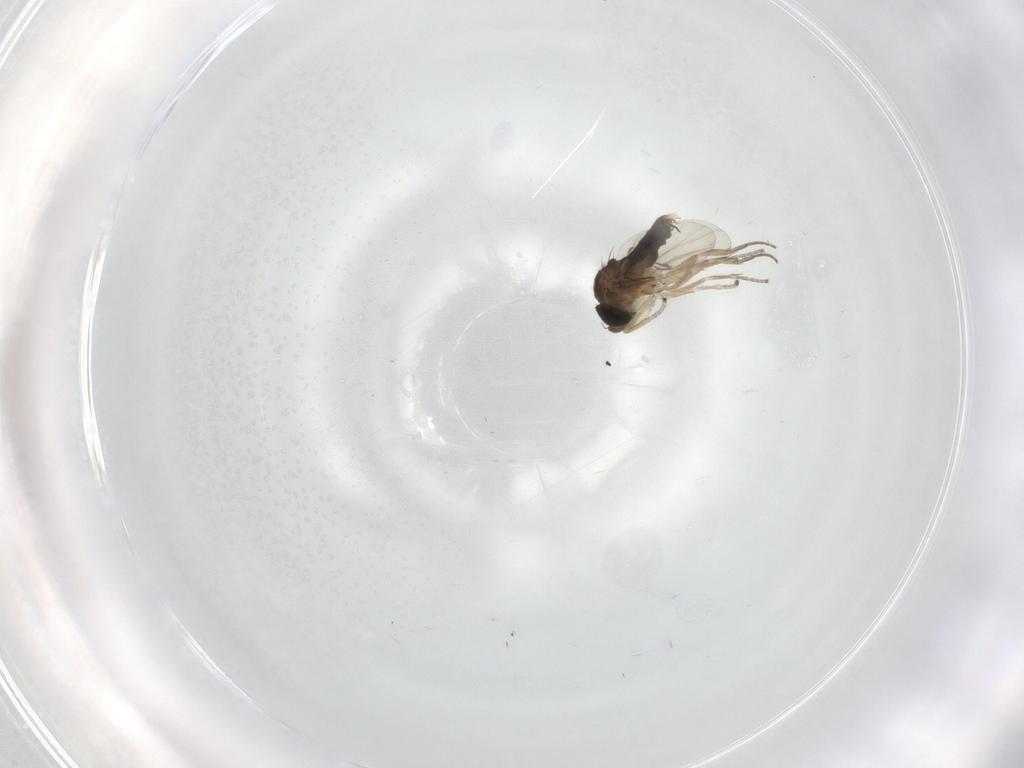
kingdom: Animalia
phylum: Arthropoda
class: Insecta
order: Diptera
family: Phoridae
